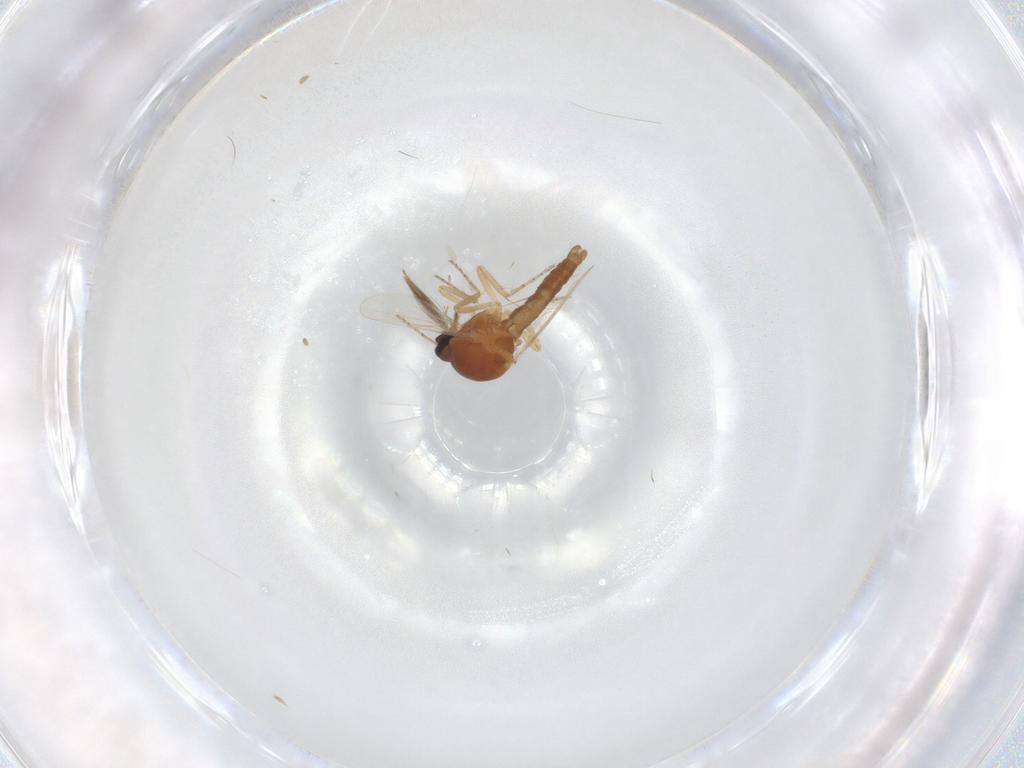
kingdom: Animalia
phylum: Arthropoda
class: Insecta
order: Diptera
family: Ceratopogonidae
